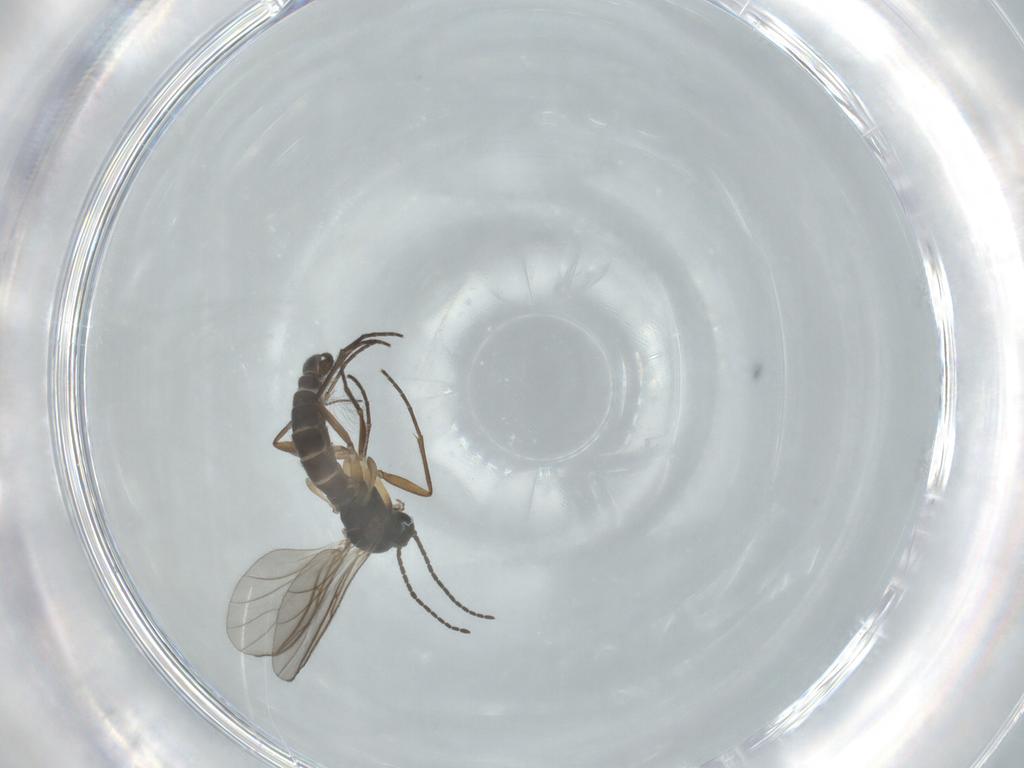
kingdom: Animalia
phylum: Arthropoda
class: Insecta
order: Diptera
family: Sciaridae
